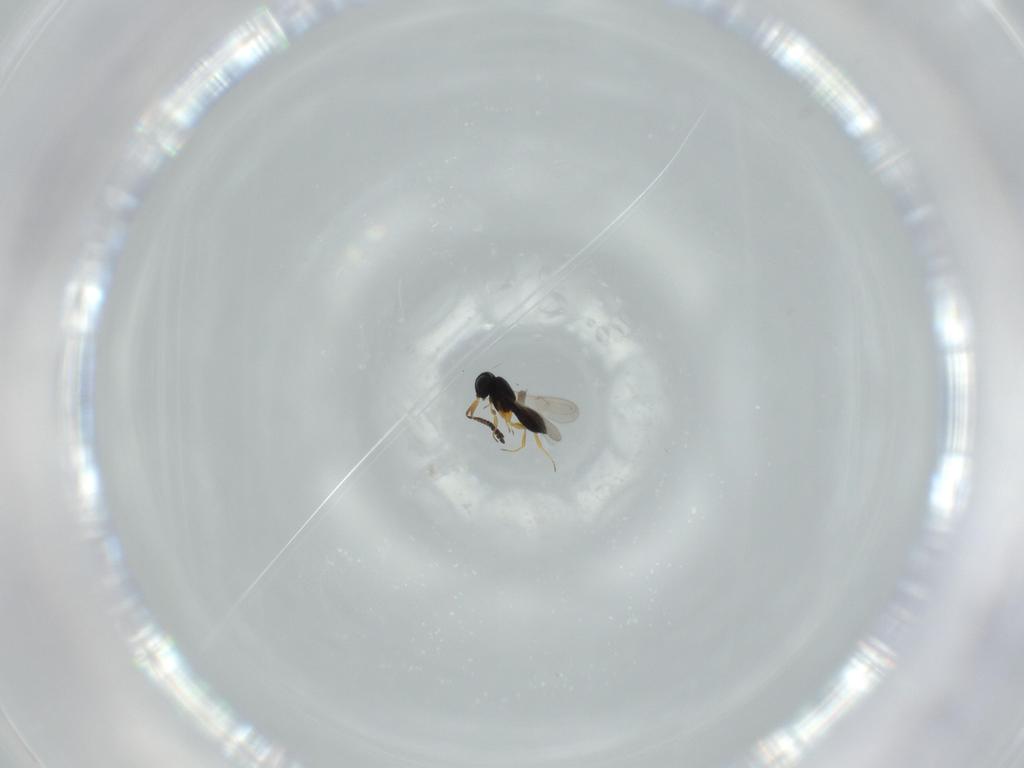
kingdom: Animalia
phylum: Arthropoda
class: Insecta
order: Hymenoptera
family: Scelionidae
